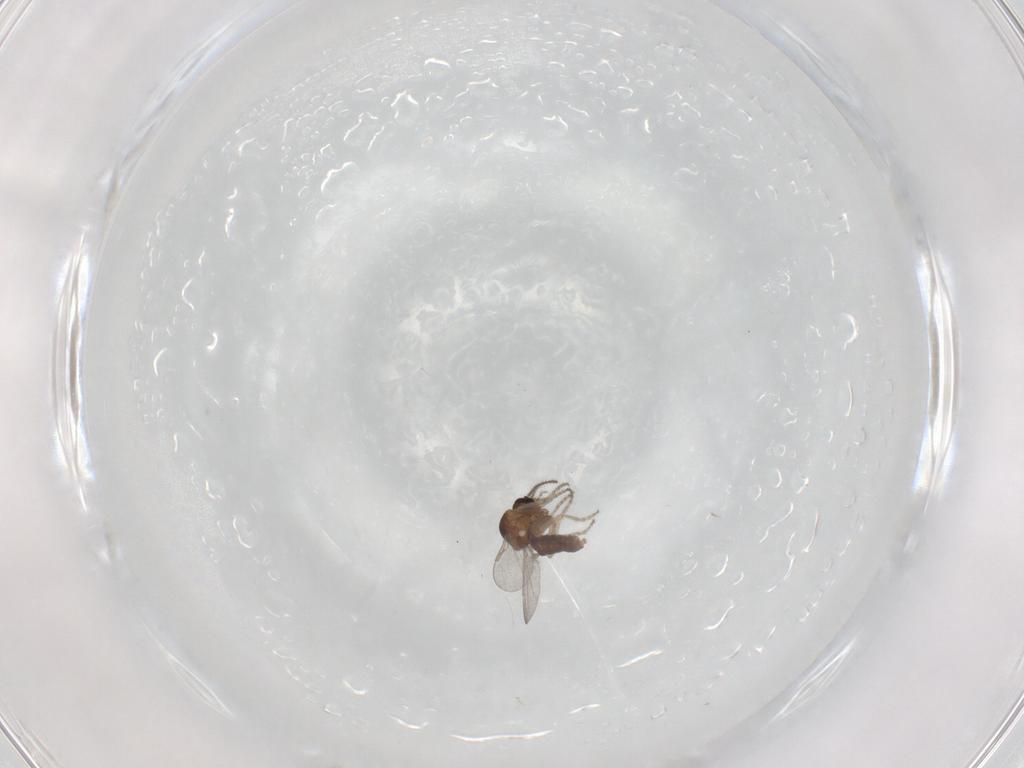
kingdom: Animalia
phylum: Arthropoda
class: Insecta
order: Diptera
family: Ceratopogonidae
